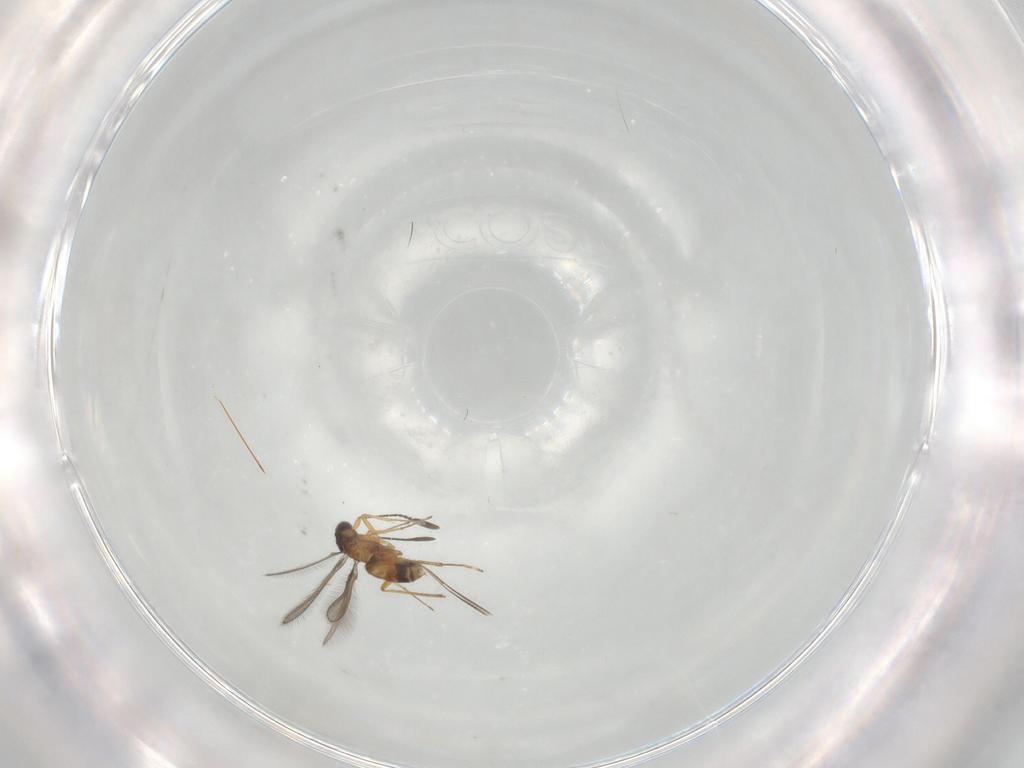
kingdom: Animalia
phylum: Arthropoda
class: Insecta
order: Hymenoptera
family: Mymaridae
